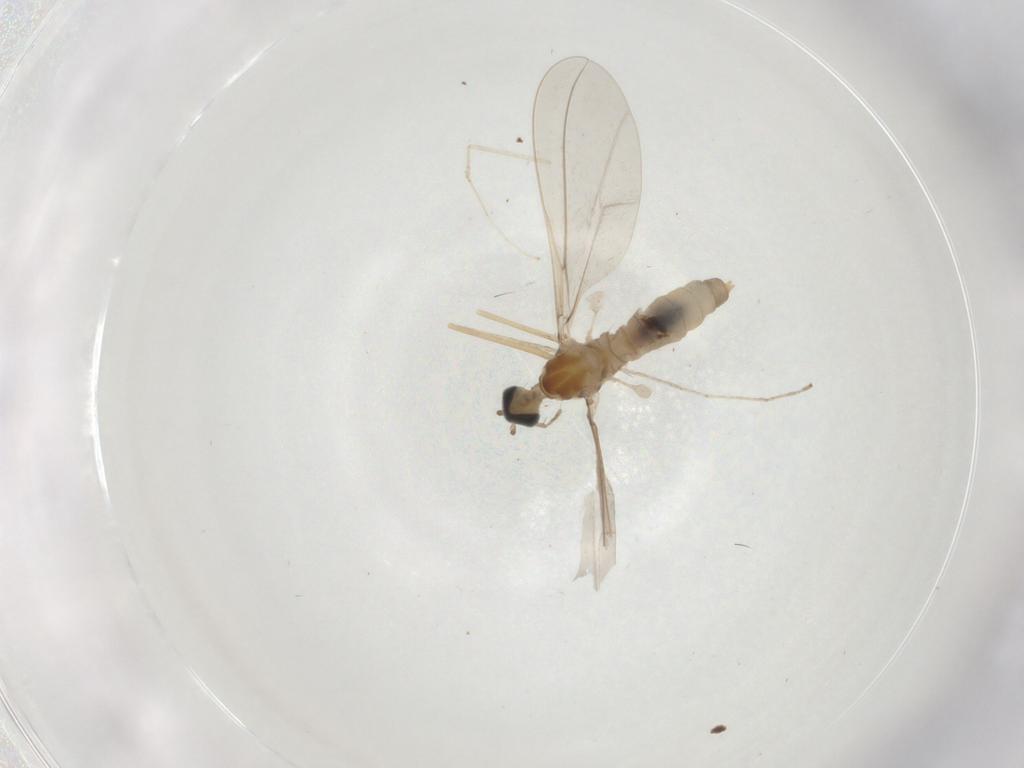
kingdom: Animalia
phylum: Arthropoda
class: Insecta
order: Diptera
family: Cecidomyiidae
